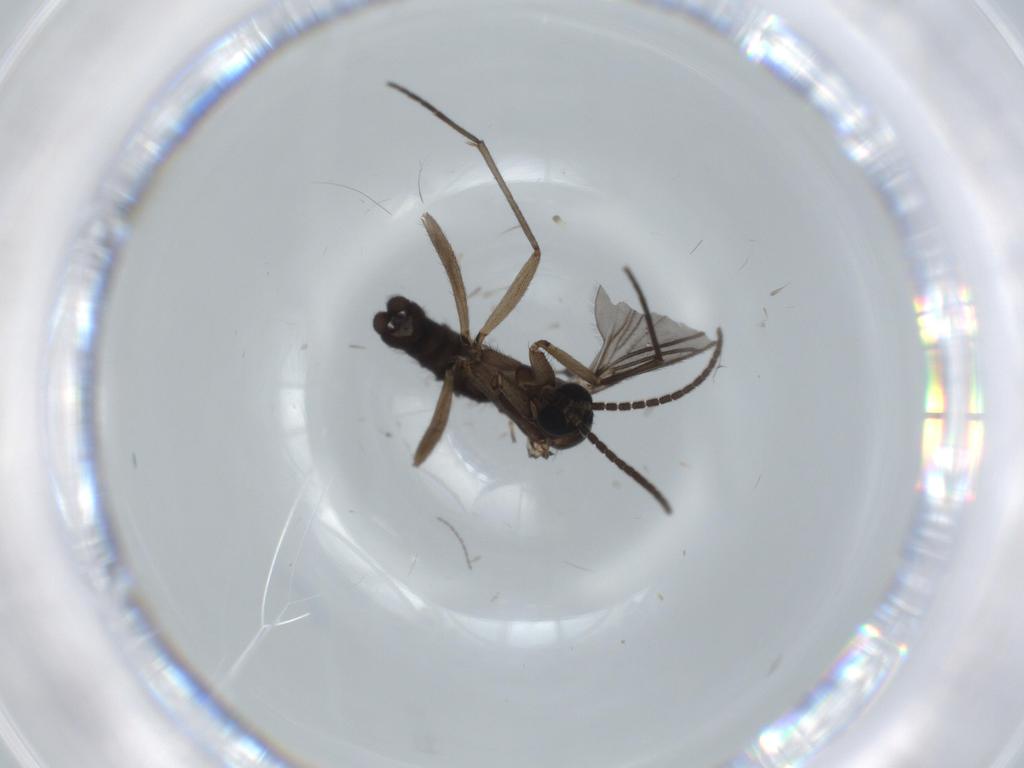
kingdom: Animalia
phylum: Arthropoda
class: Insecta
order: Diptera
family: Sciaridae
